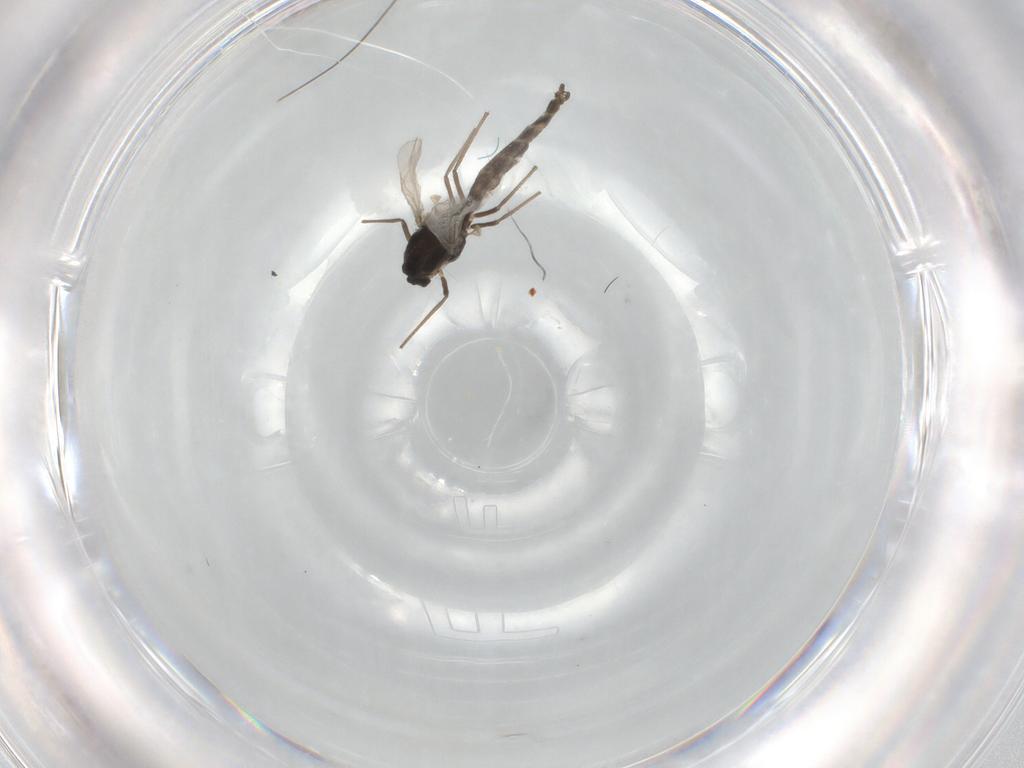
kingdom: Animalia
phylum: Arthropoda
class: Insecta
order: Diptera
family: Chironomidae
